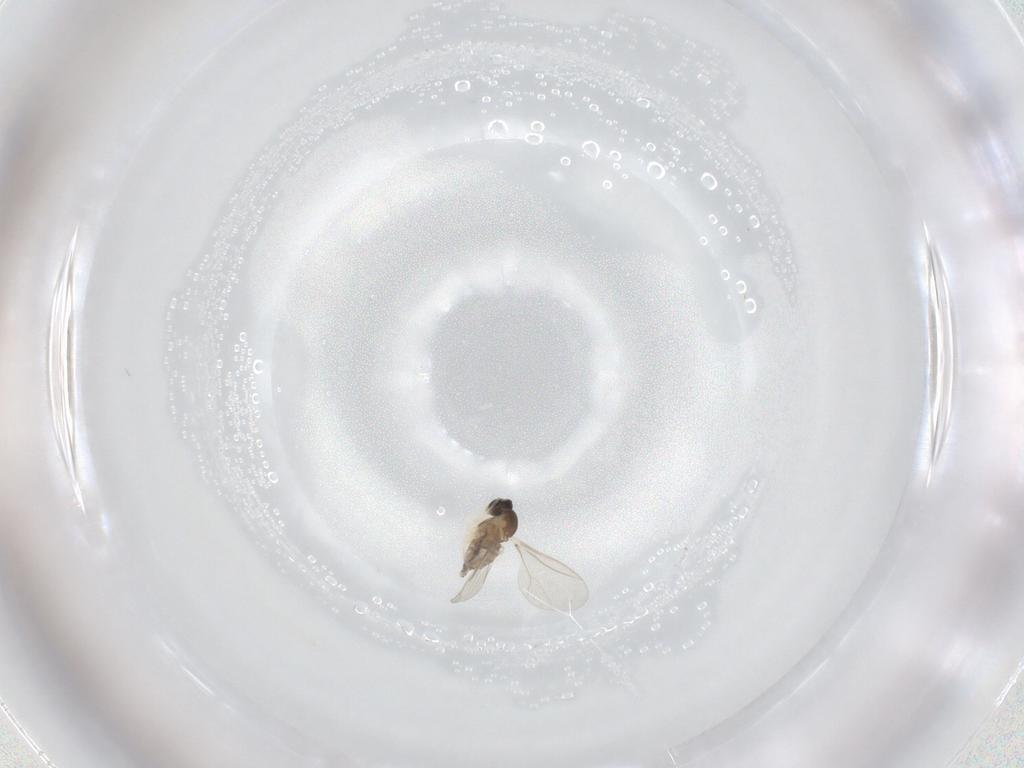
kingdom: Animalia
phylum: Arthropoda
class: Insecta
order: Diptera
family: Cecidomyiidae
